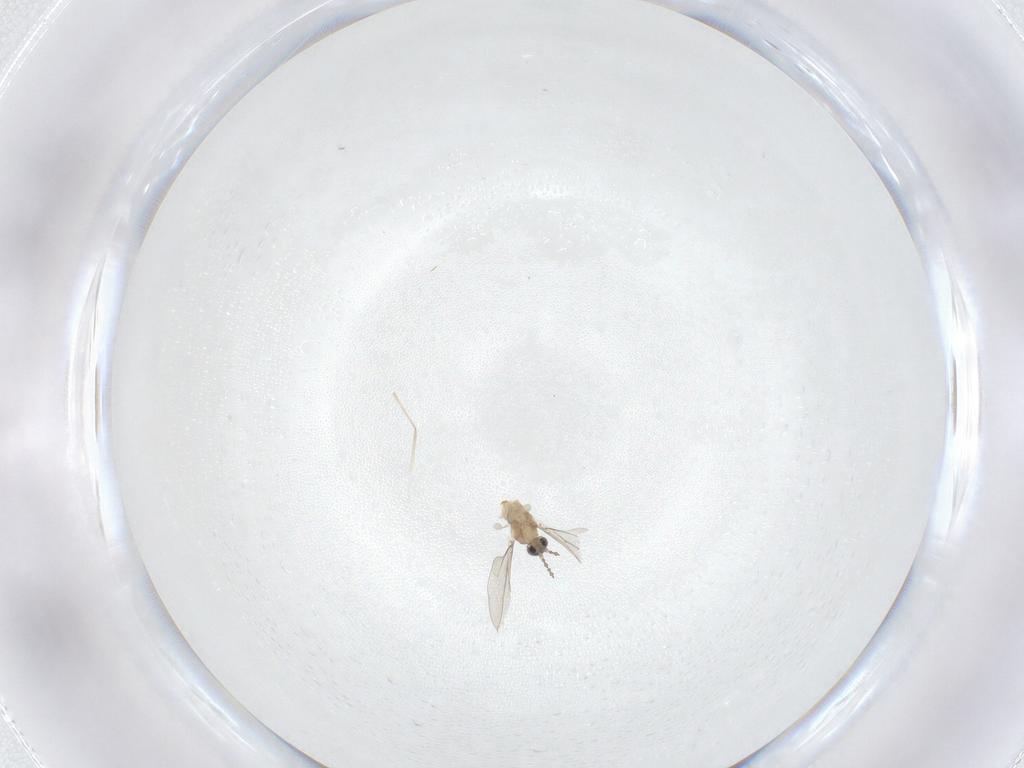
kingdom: Animalia
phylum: Arthropoda
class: Insecta
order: Diptera
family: Cecidomyiidae
